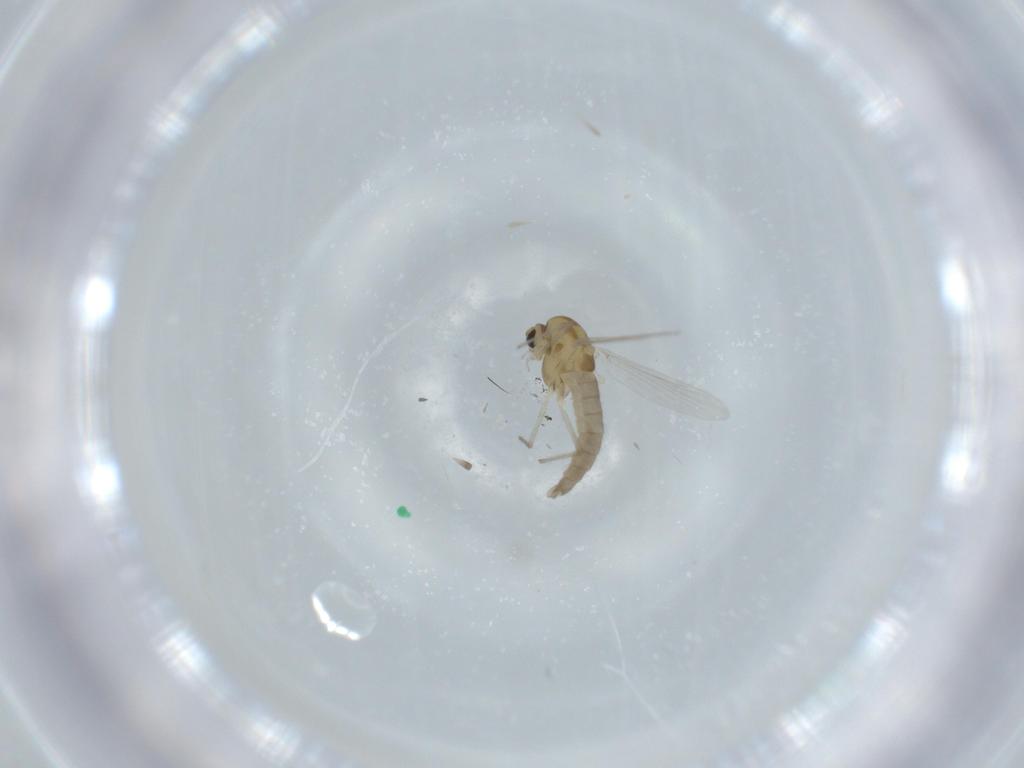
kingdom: Animalia
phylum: Arthropoda
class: Insecta
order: Diptera
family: Chironomidae
